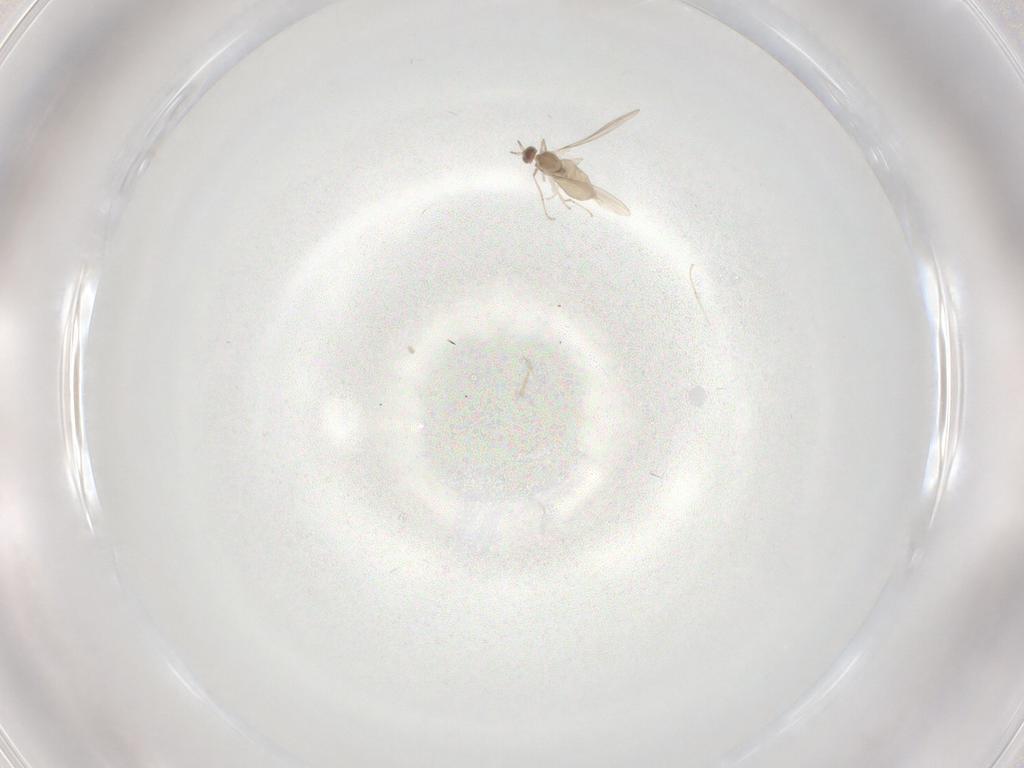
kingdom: Animalia
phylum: Arthropoda
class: Insecta
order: Diptera
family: Cecidomyiidae
